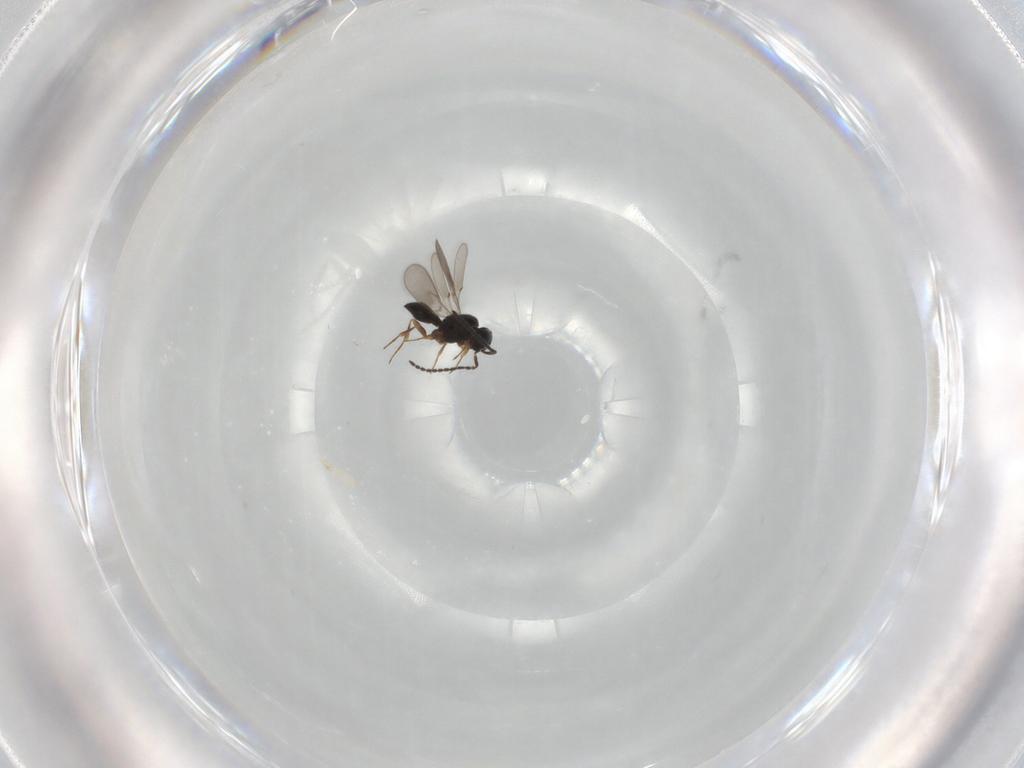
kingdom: Animalia
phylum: Arthropoda
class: Insecta
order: Hymenoptera
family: Scelionidae
